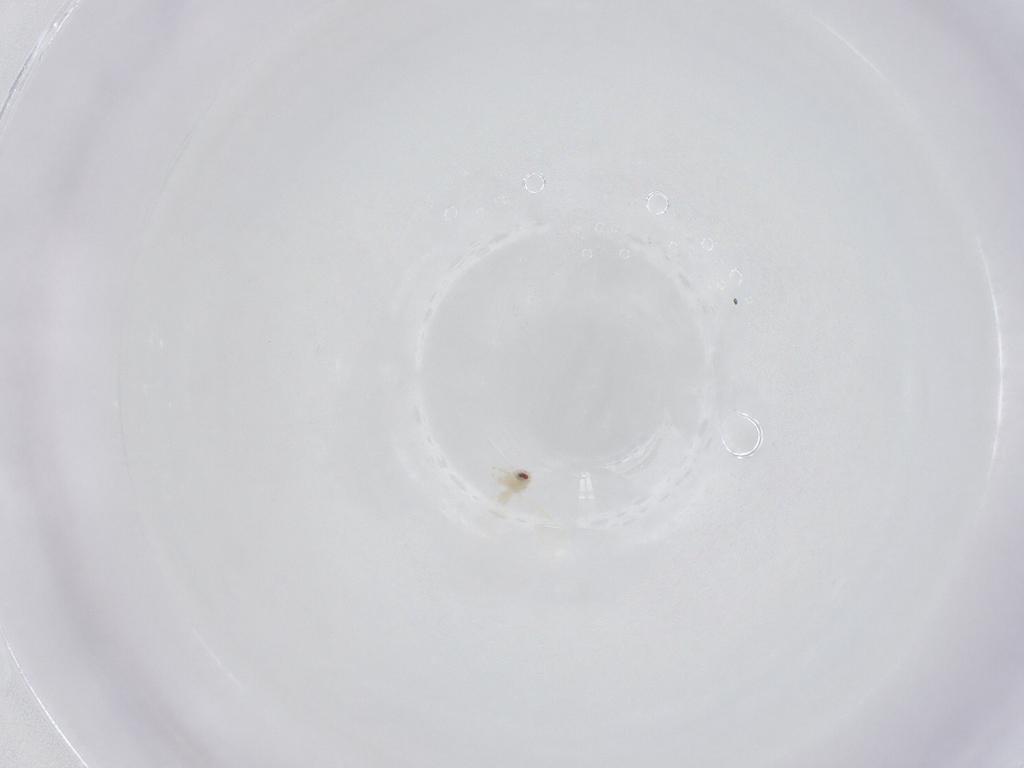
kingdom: Animalia
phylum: Arthropoda
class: Insecta
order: Hemiptera
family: Aleyrodidae
